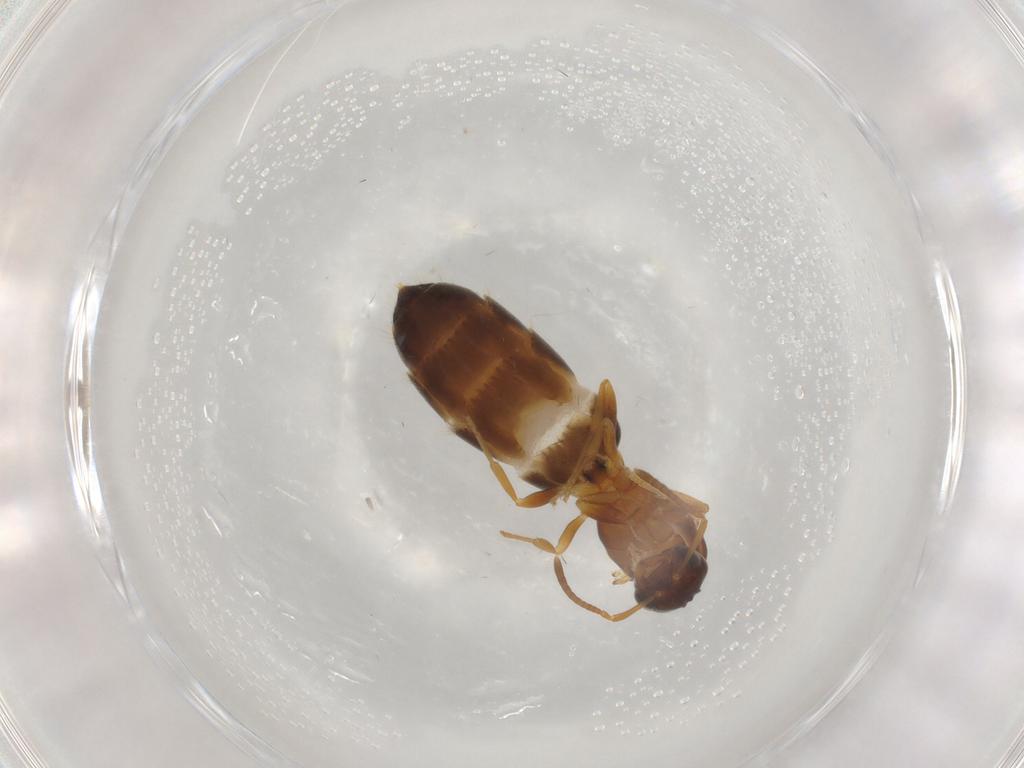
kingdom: Animalia
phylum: Arthropoda
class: Insecta
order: Hymenoptera
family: Formicidae
